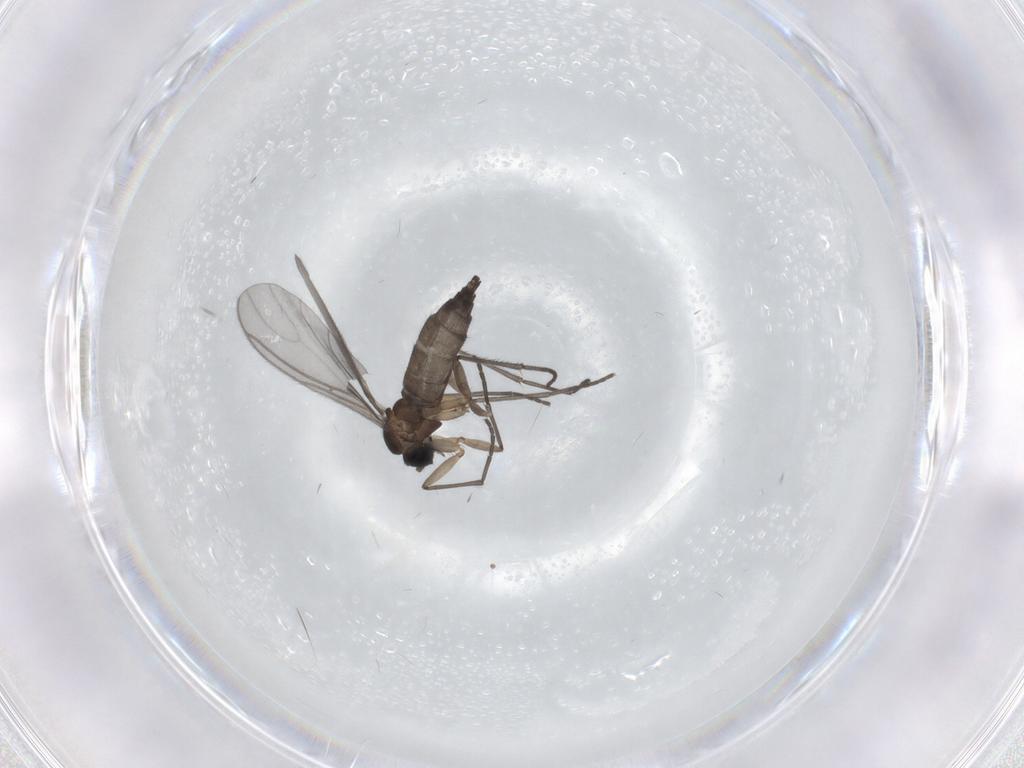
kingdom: Animalia
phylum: Arthropoda
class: Insecta
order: Diptera
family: Sciaridae
